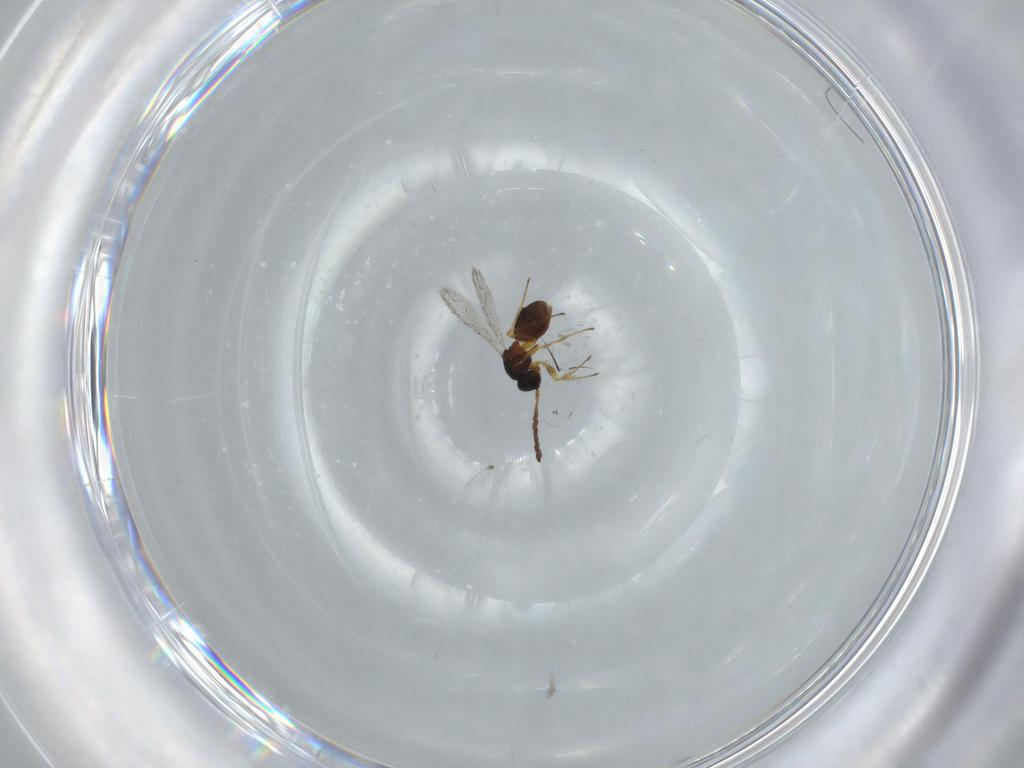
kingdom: Animalia
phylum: Arthropoda
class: Insecta
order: Hymenoptera
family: Figitidae
